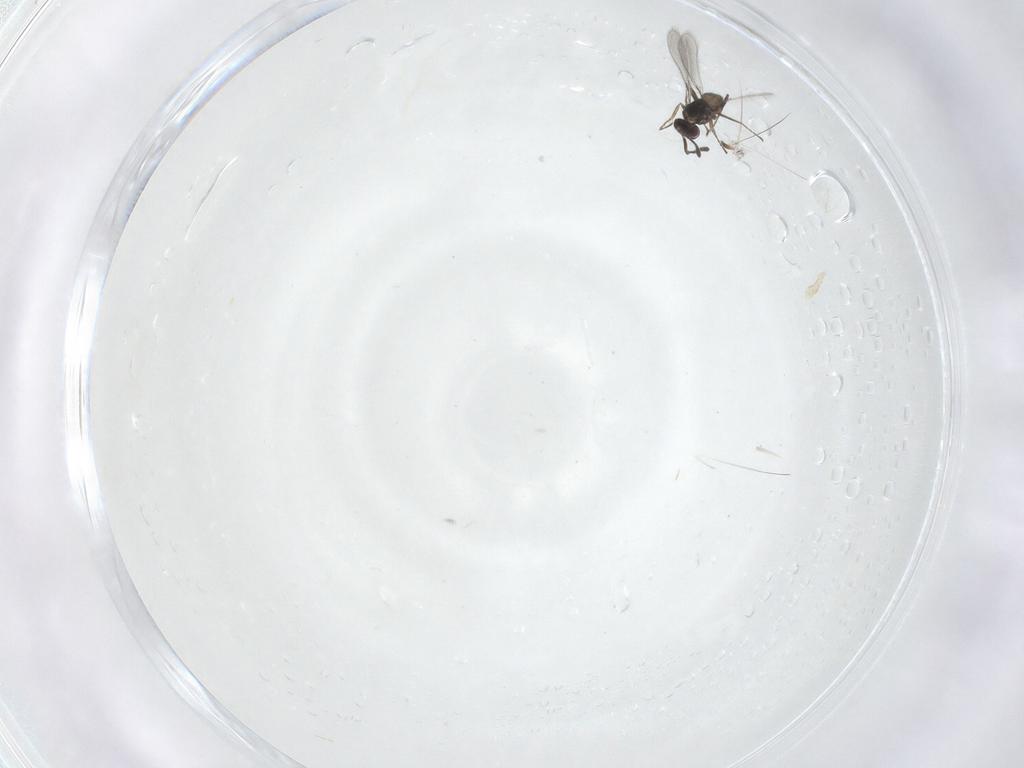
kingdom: Animalia
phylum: Arthropoda
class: Insecta
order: Hymenoptera
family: Mymaridae
